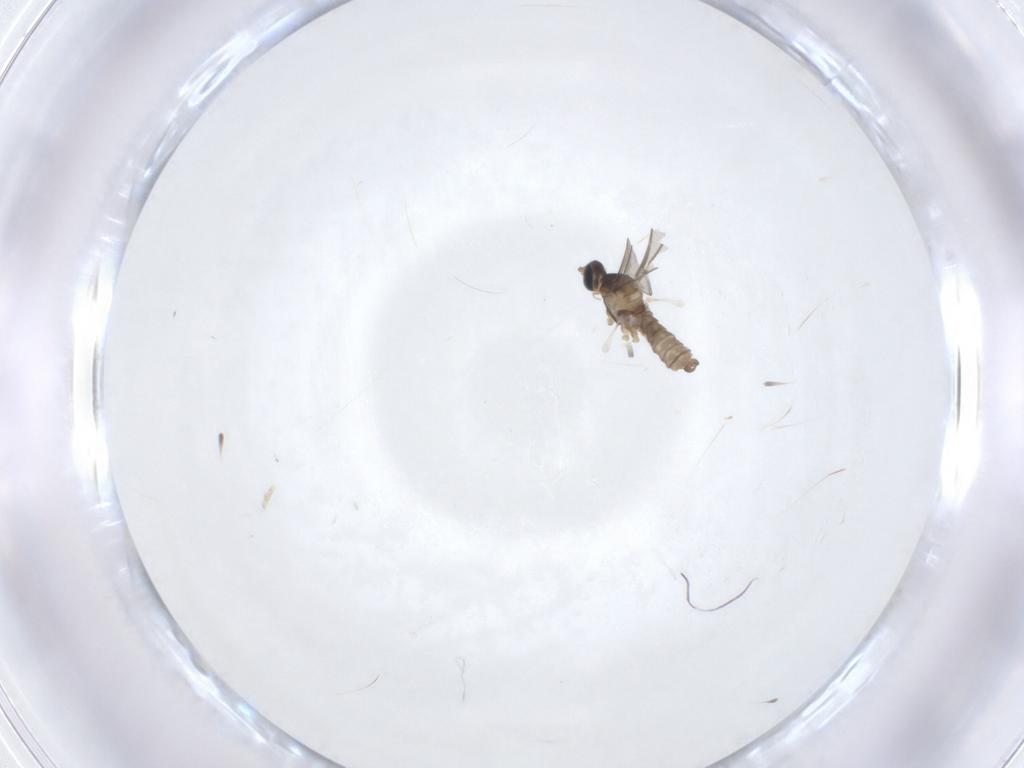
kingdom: Animalia
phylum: Arthropoda
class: Insecta
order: Diptera
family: Cecidomyiidae
